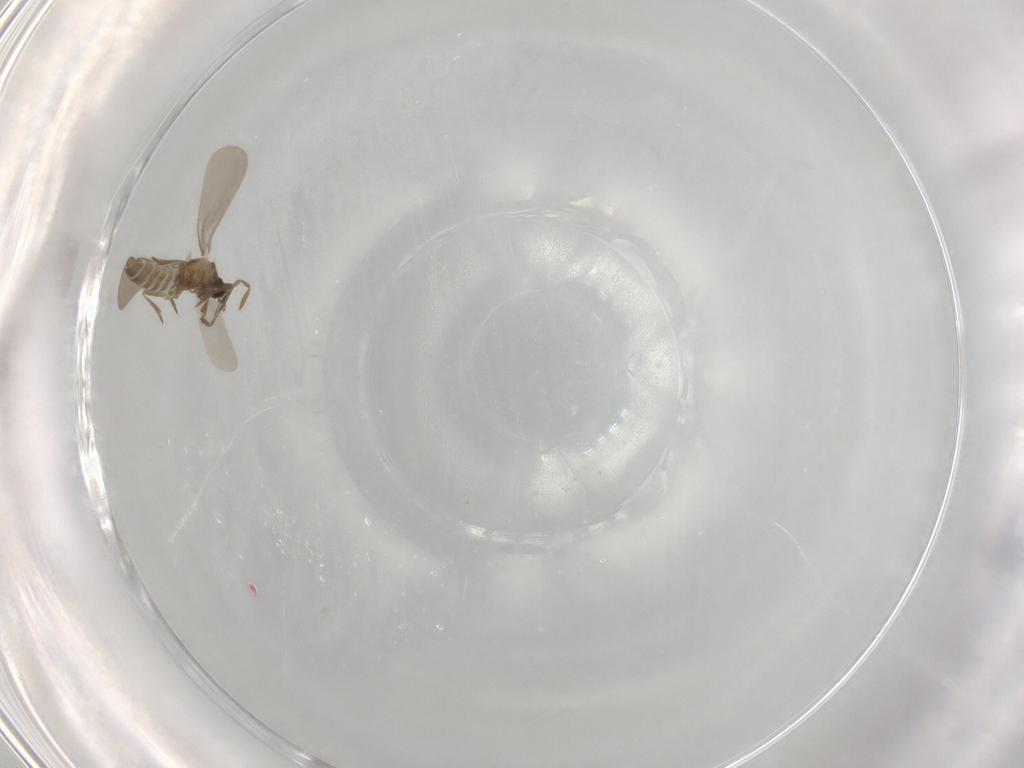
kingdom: Animalia
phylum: Arthropoda
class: Insecta
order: Hemiptera
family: Enicocephalidae
